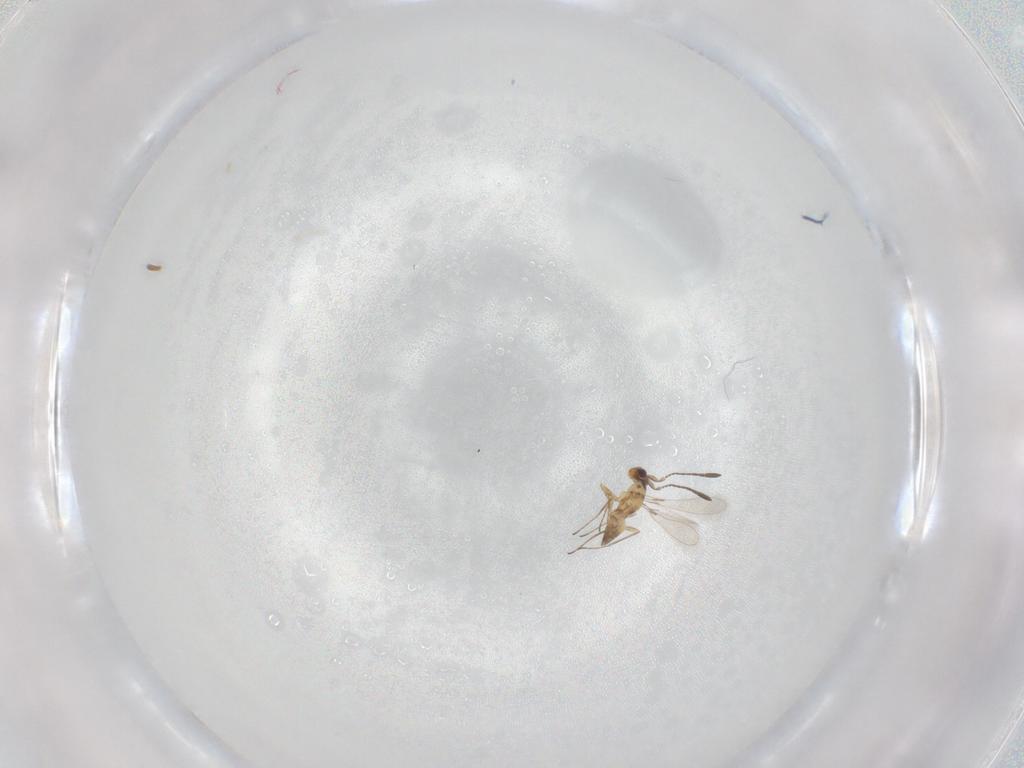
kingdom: Animalia
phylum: Arthropoda
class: Insecta
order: Hymenoptera
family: Mymaridae
